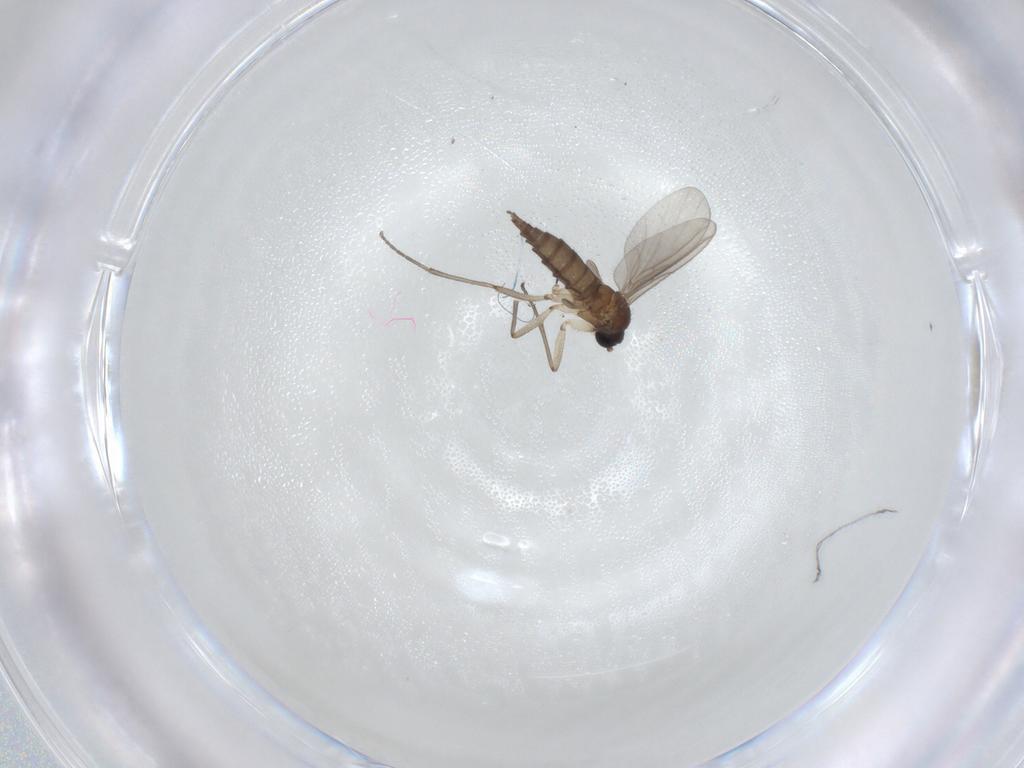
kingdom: Animalia
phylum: Arthropoda
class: Insecta
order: Diptera
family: Sciaridae
